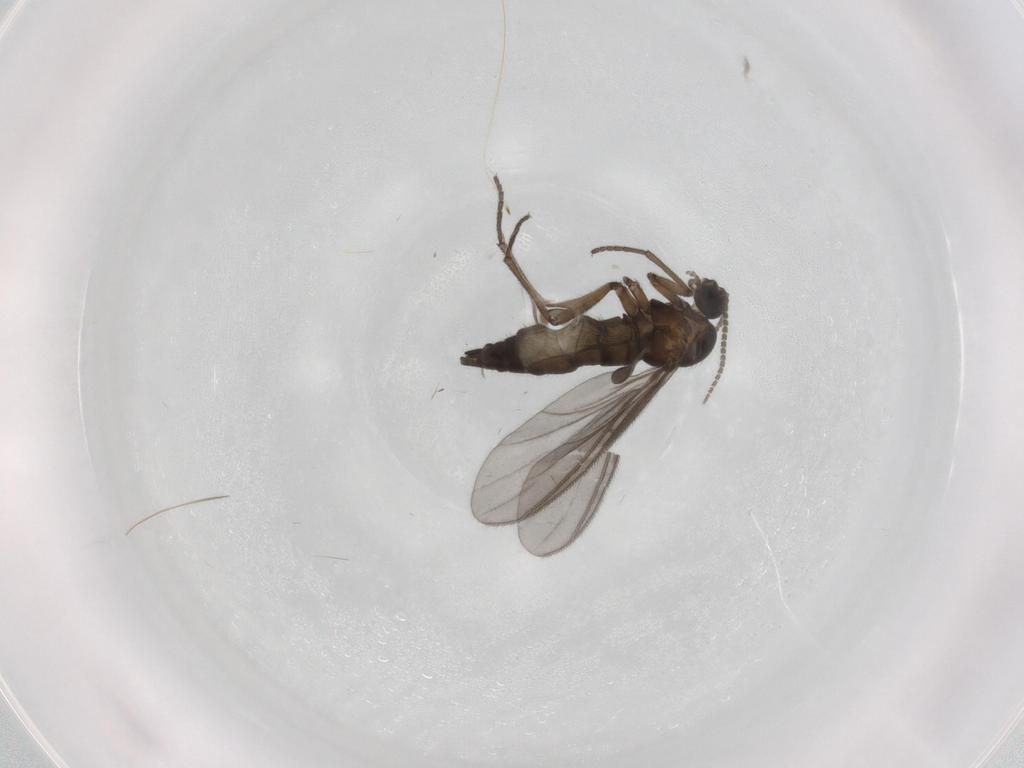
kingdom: Animalia
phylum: Arthropoda
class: Insecta
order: Diptera
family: Sciaridae
